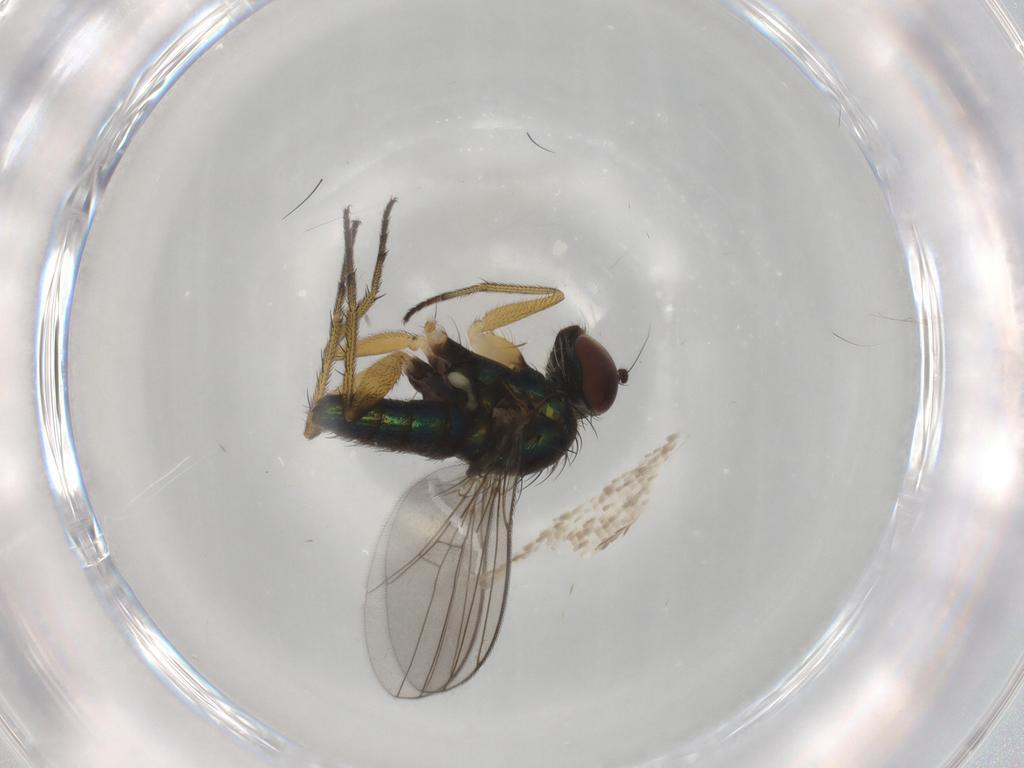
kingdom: Animalia
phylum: Arthropoda
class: Insecta
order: Diptera
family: Dolichopodidae
